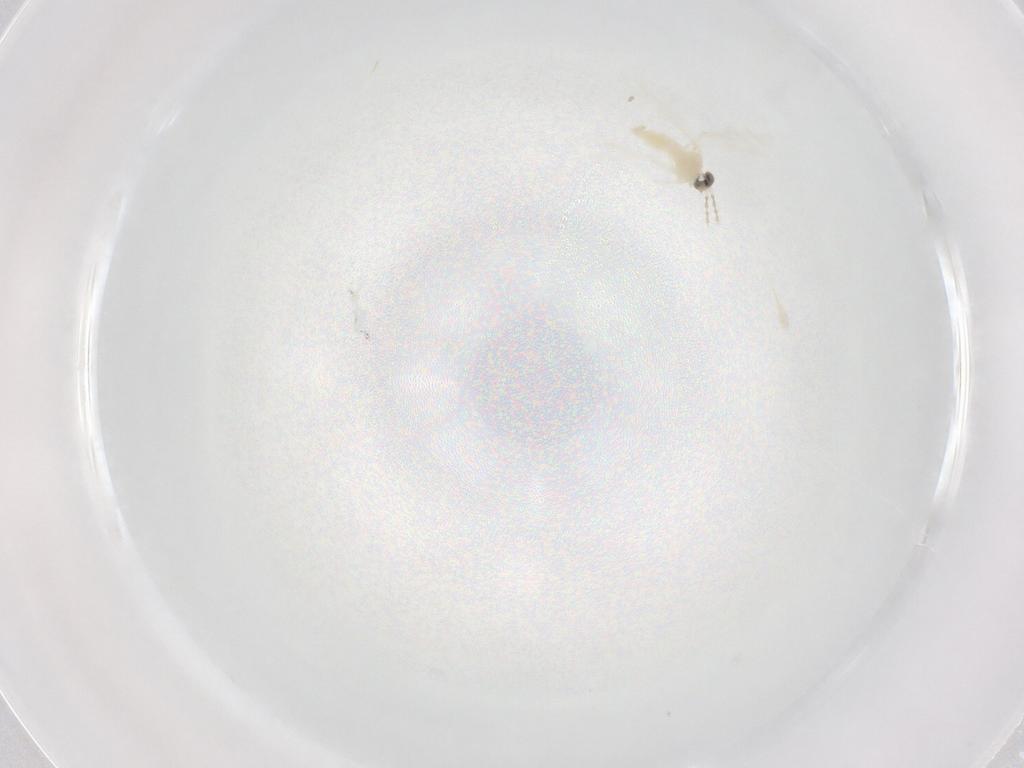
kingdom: Animalia
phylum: Arthropoda
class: Insecta
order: Diptera
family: Cecidomyiidae
